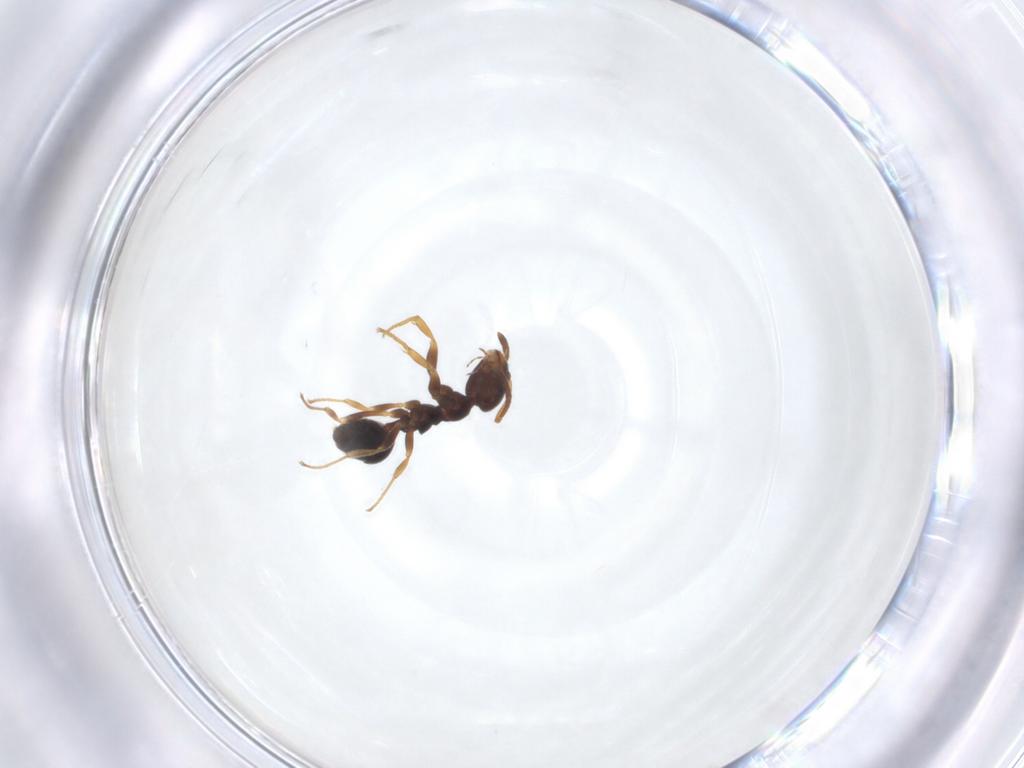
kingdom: Animalia
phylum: Arthropoda
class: Insecta
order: Hymenoptera
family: Formicidae
